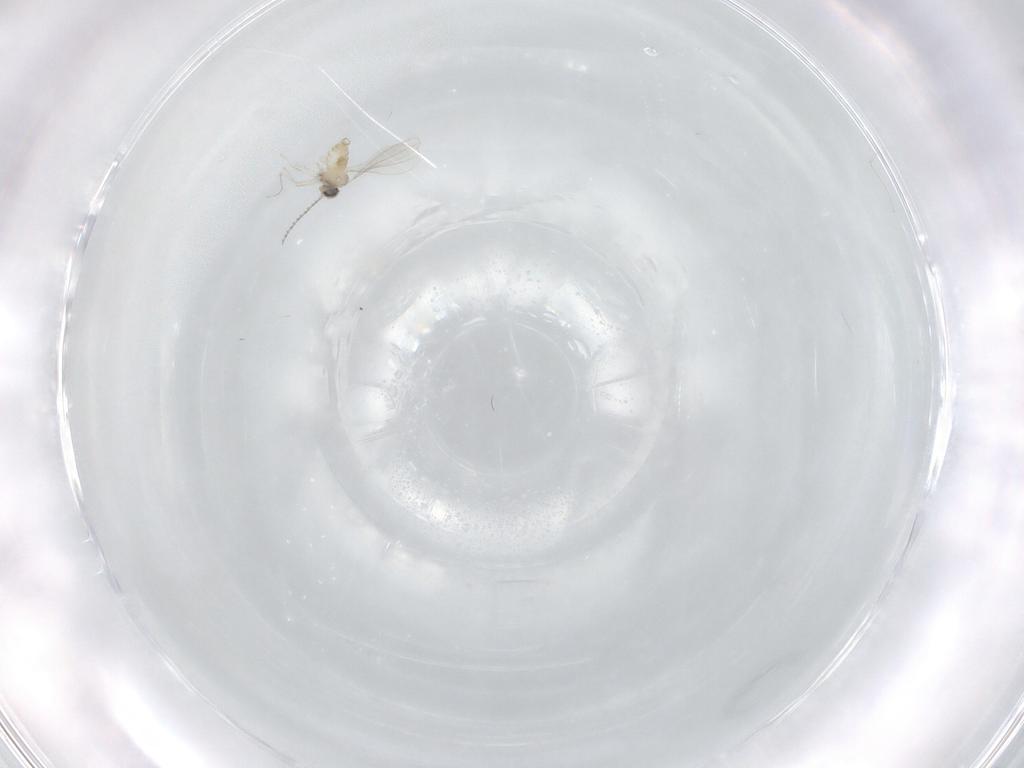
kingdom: Animalia
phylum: Arthropoda
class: Insecta
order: Diptera
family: Cecidomyiidae
